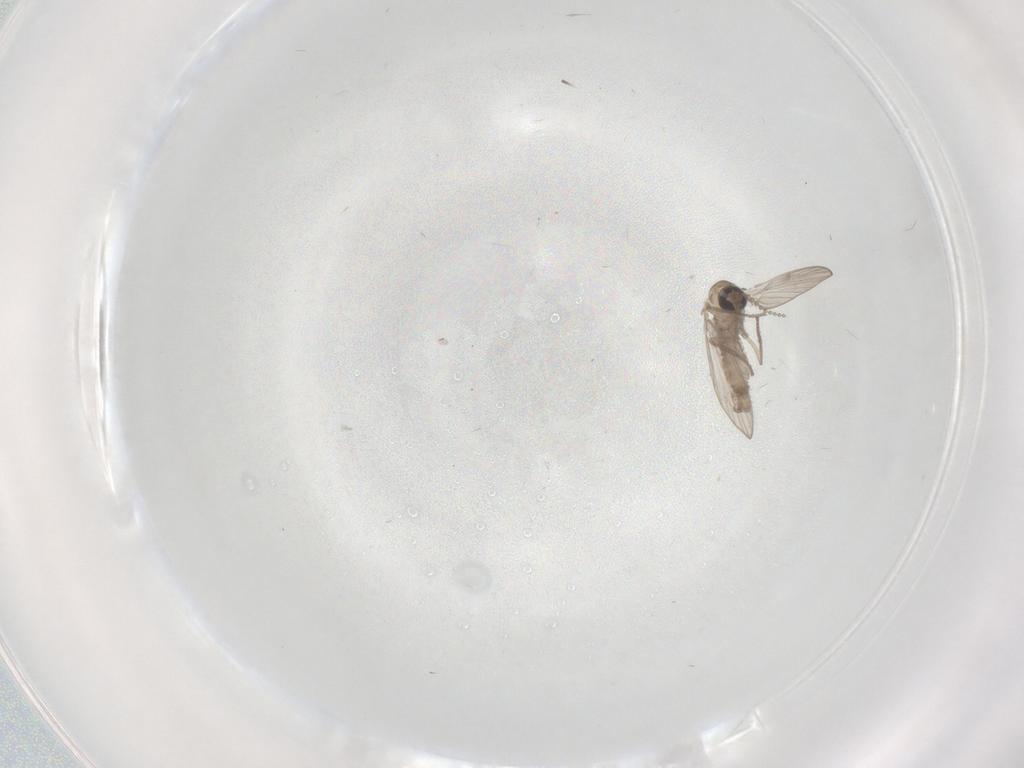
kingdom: Animalia
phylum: Arthropoda
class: Insecta
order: Diptera
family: Psychodidae
